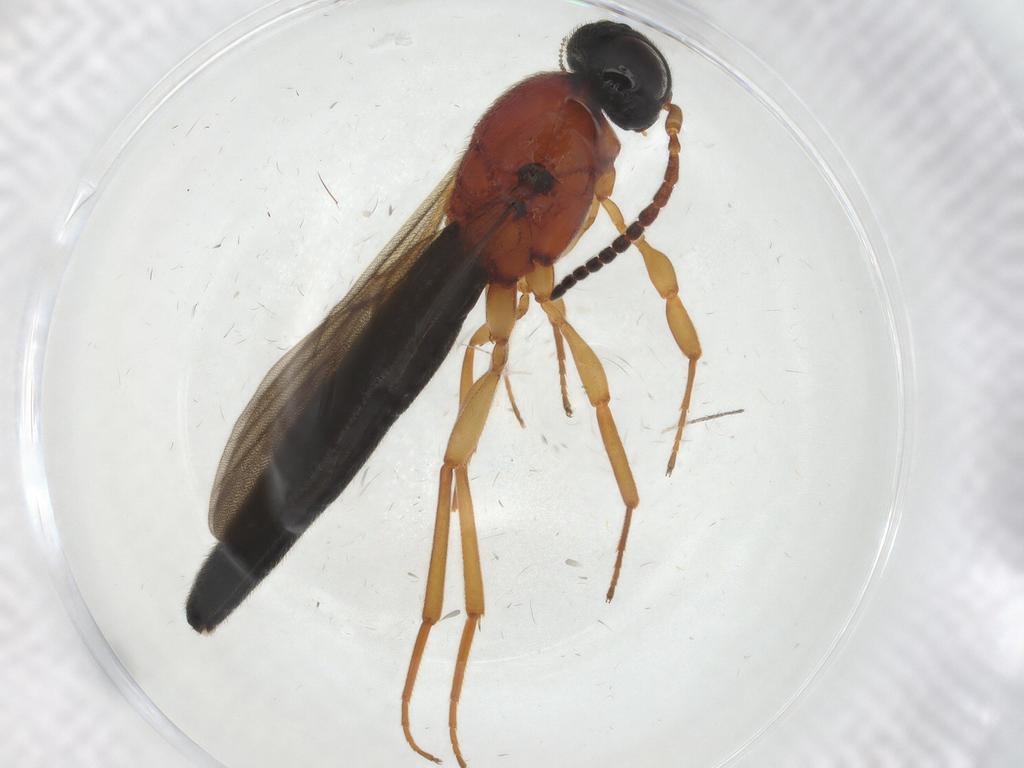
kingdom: Animalia
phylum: Arthropoda
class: Insecta
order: Hymenoptera
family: Scelionidae
